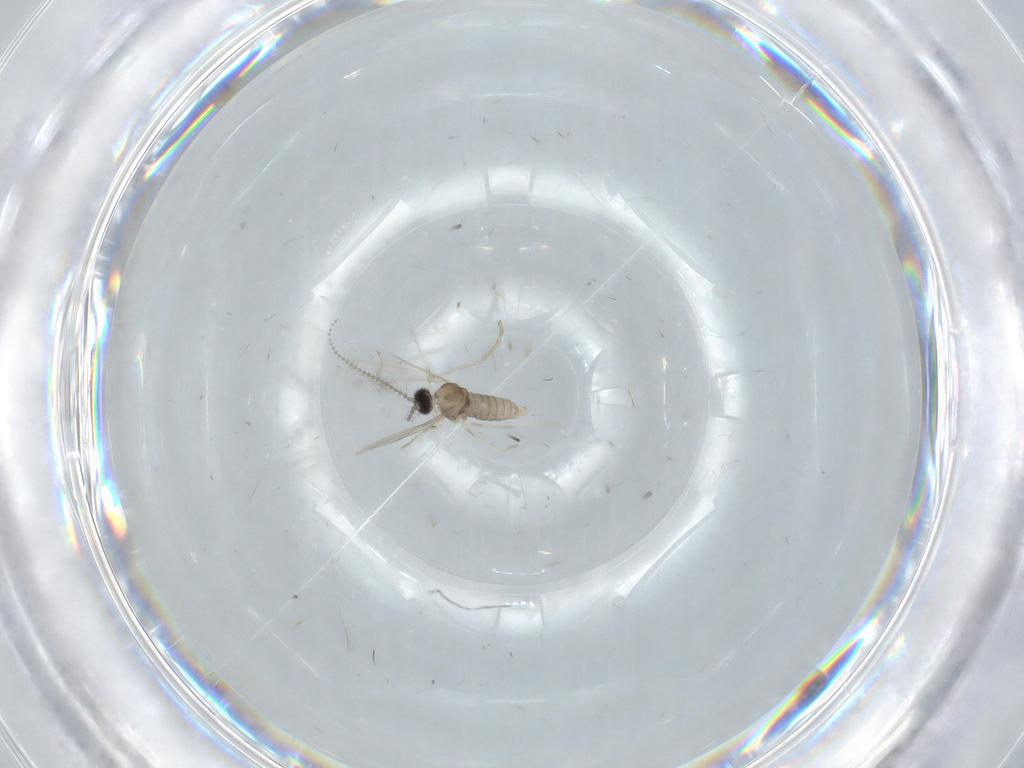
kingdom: Animalia
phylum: Arthropoda
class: Insecta
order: Diptera
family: Cecidomyiidae
